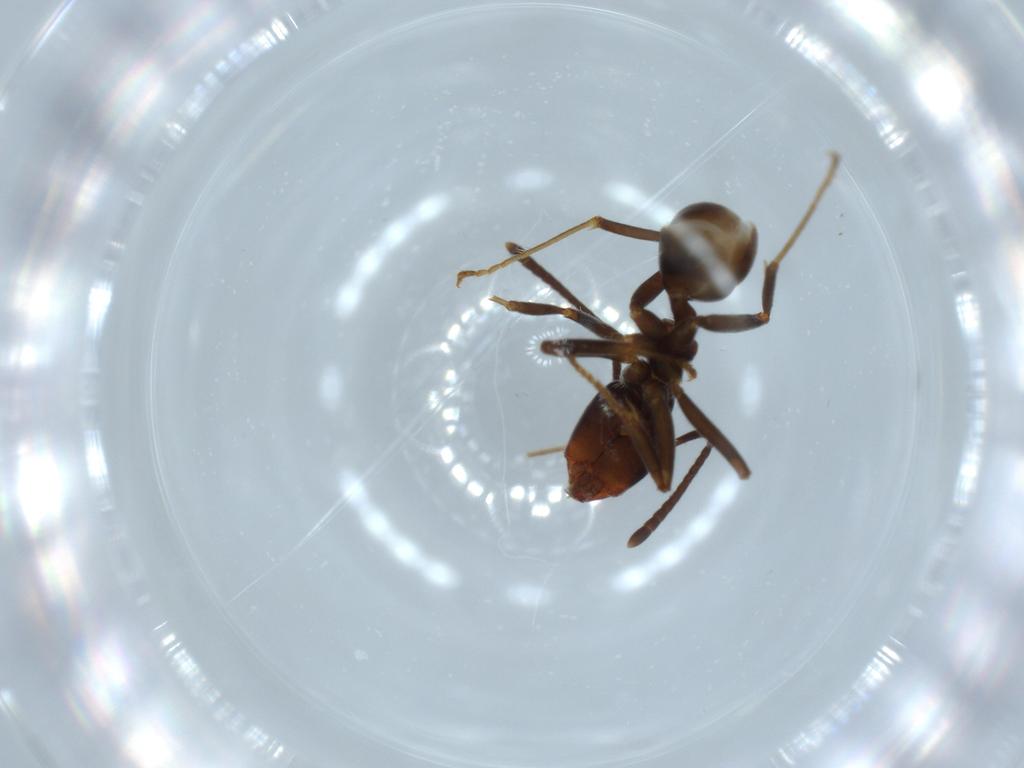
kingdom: Animalia
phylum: Arthropoda
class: Insecta
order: Hymenoptera
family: Formicidae
